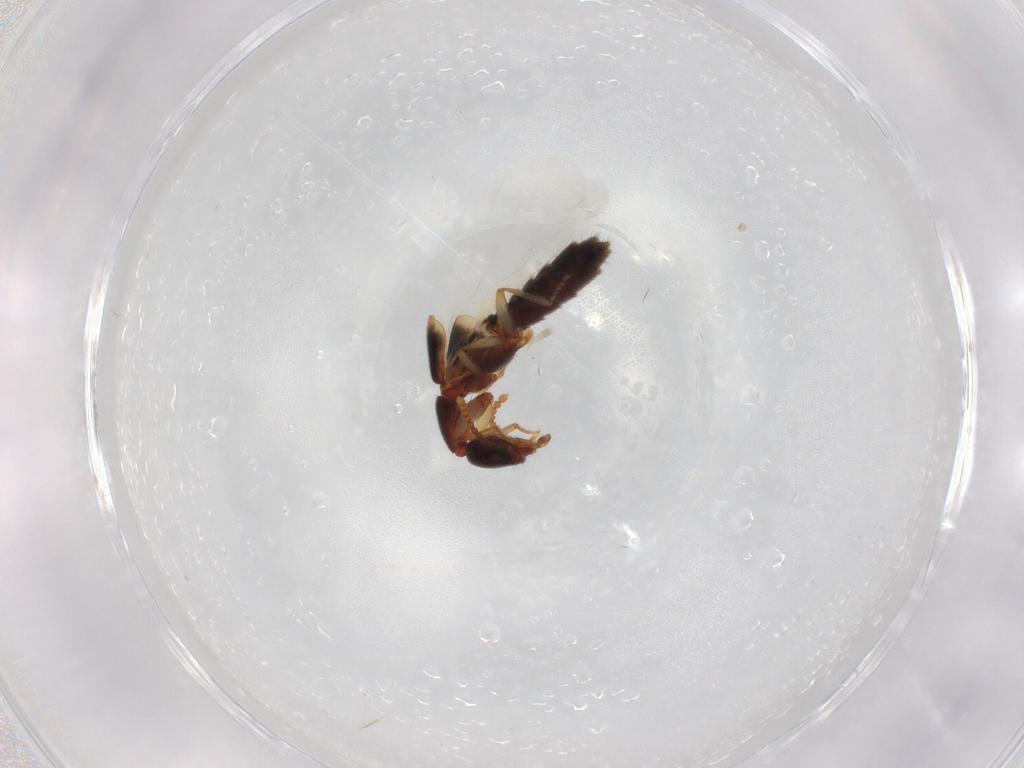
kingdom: Animalia
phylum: Arthropoda
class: Insecta
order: Coleoptera
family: Staphylinidae
